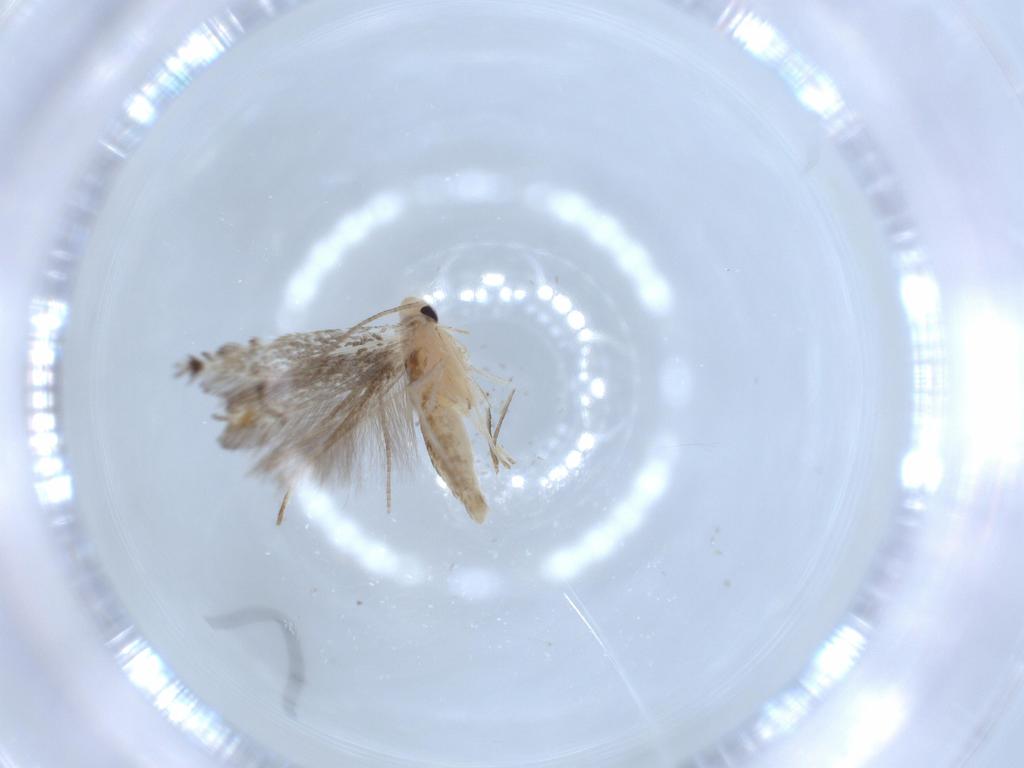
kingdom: Animalia
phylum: Arthropoda
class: Insecta
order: Lepidoptera
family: Gracillariidae
